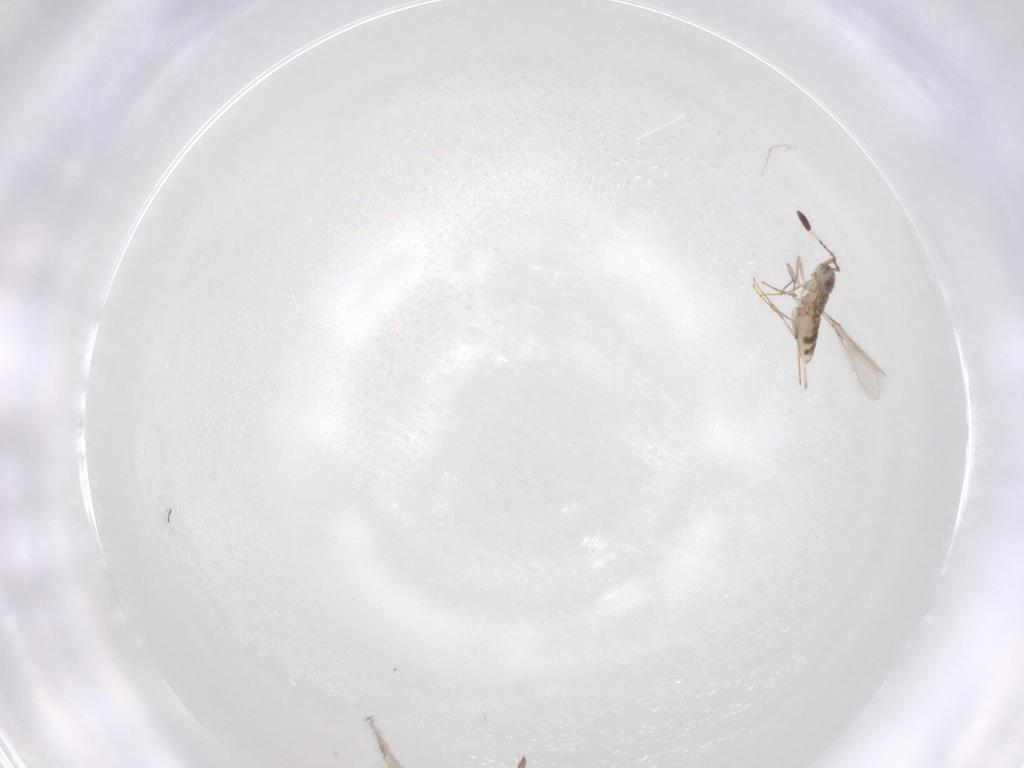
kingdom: Animalia
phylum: Arthropoda
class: Insecta
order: Hymenoptera
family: Mymaridae
